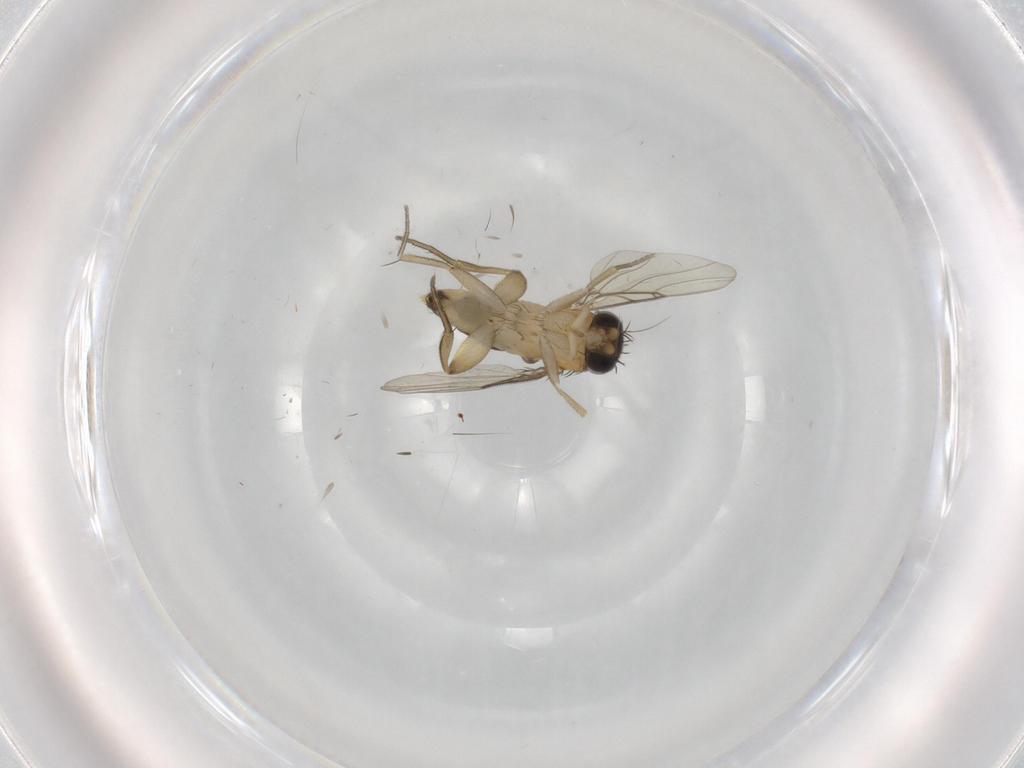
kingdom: Animalia
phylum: Arthropoda
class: Insecta
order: Diptera
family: Phoridae
